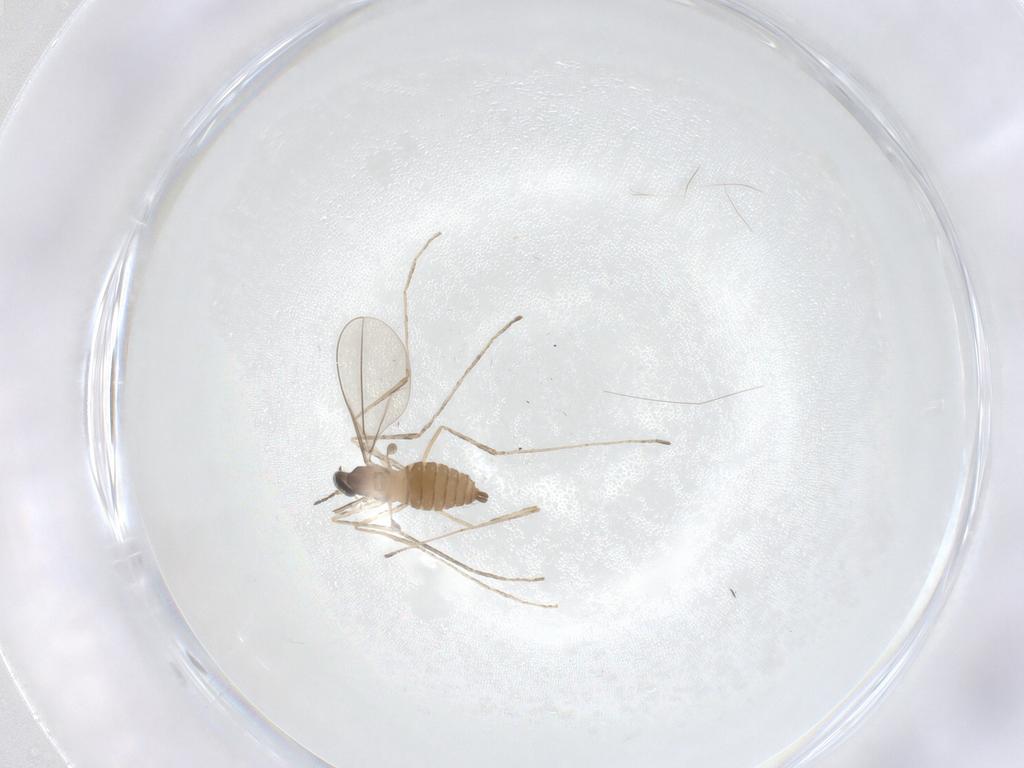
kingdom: Animalia
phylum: Arthropoda
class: Insecta
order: Diptera
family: Cecidomyiidae
